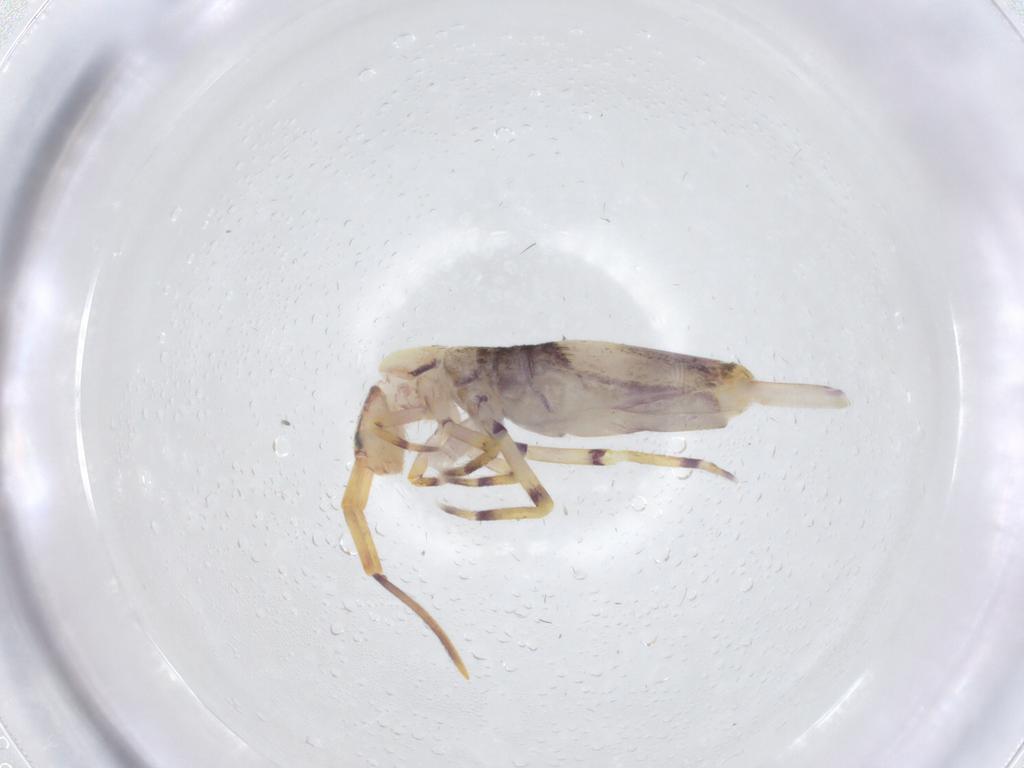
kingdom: Animalia
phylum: Arthropoda
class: Collembola
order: Entomobryomorpha
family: Entomobryidae
